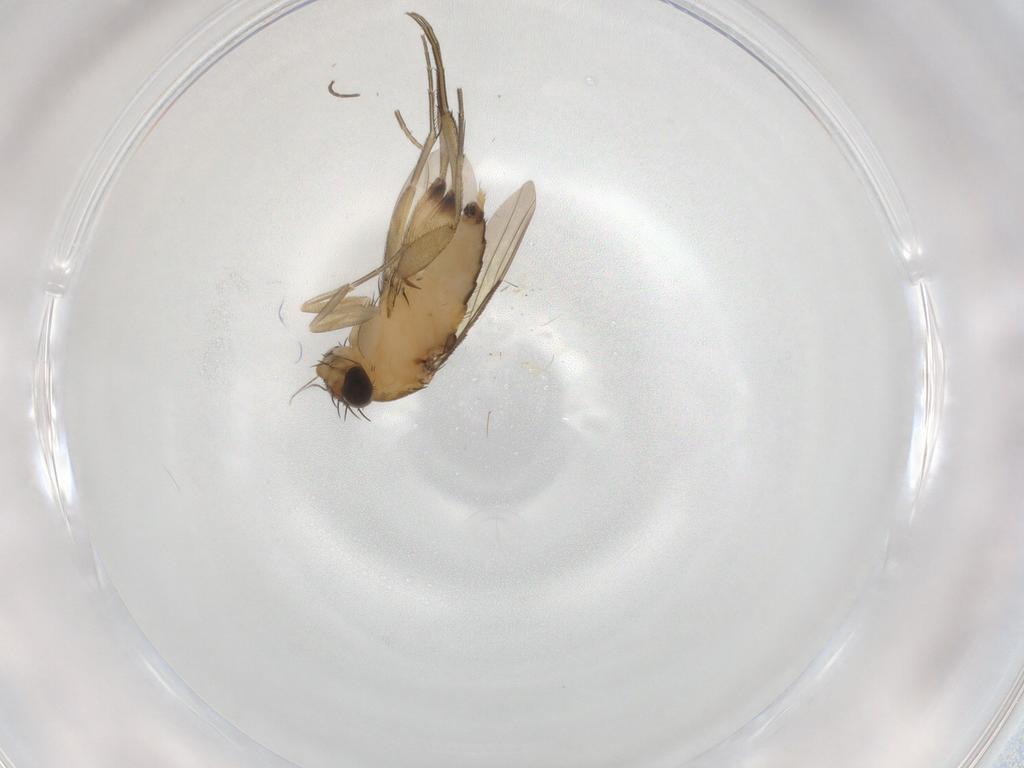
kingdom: Animalia
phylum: Arthropoda
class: Insecta
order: Diptera
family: Phoridae
